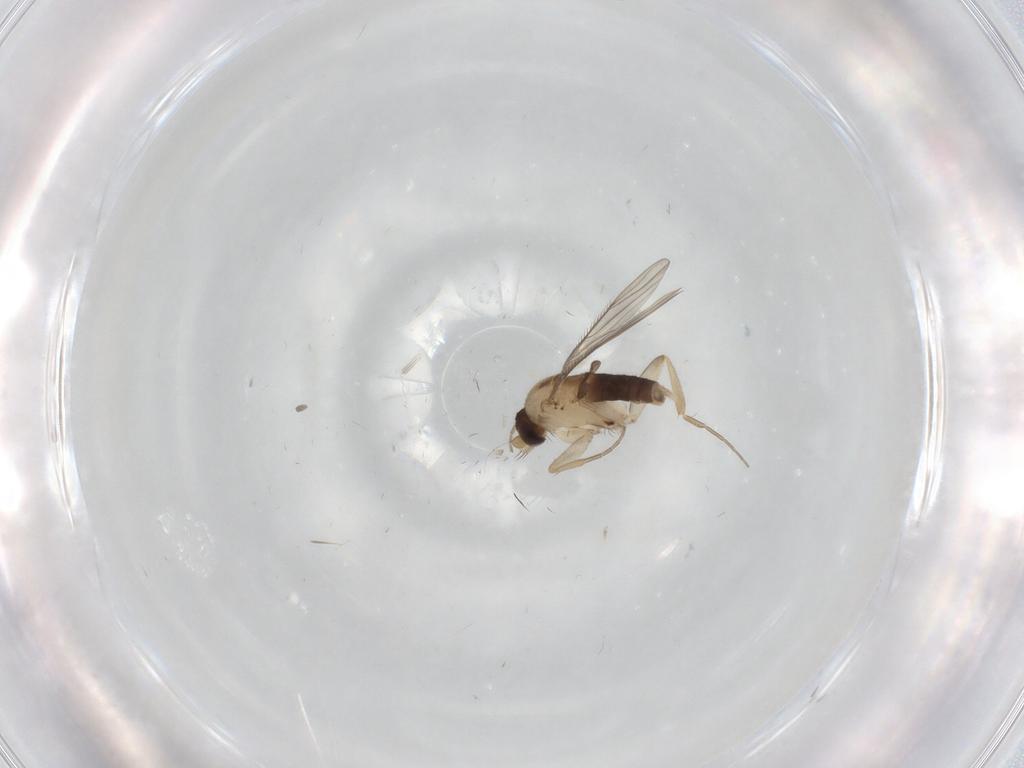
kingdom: Animalia
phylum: Arthropoda
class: Insecta
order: Diptera
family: Phoridae
